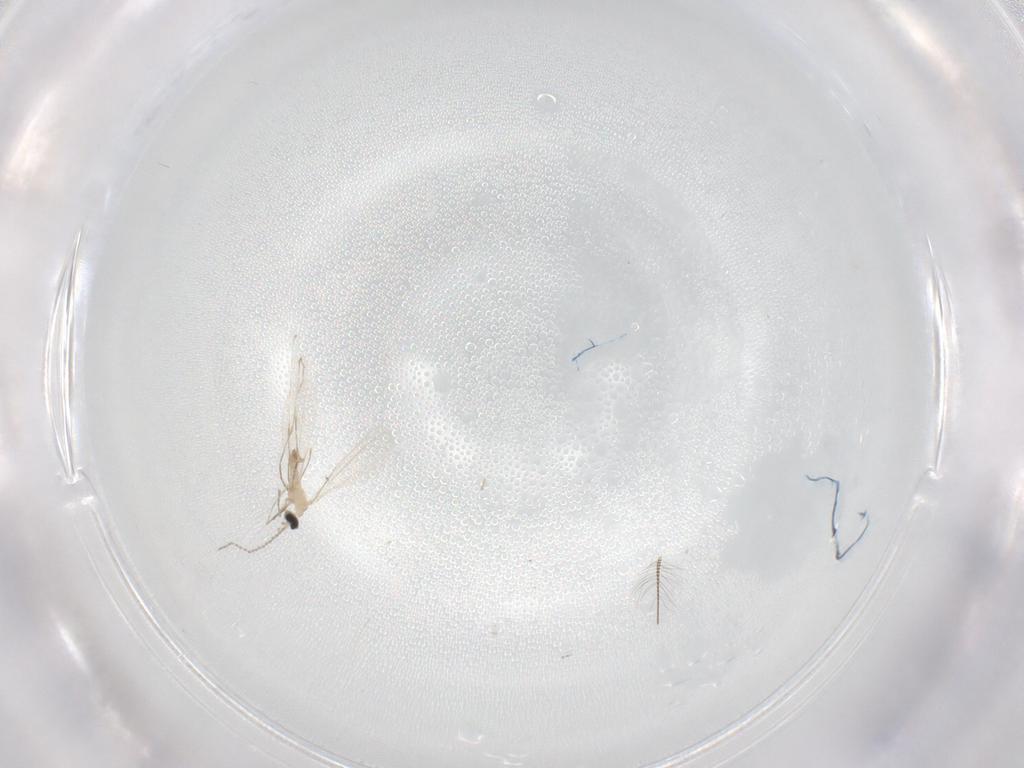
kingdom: Animalia
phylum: Arthropoda
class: Insecta
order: Diptera
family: Chironomidae
